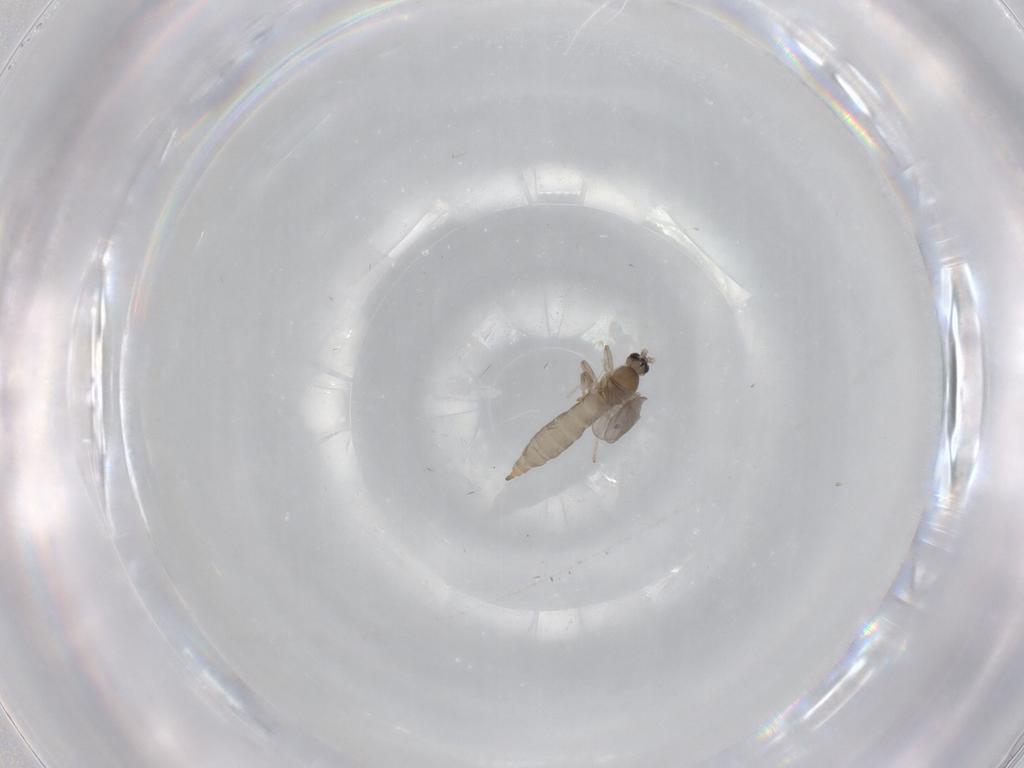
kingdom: Animalia
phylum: Arthropoda
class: Insecta
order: Diptera
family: Cecidomyiidae
